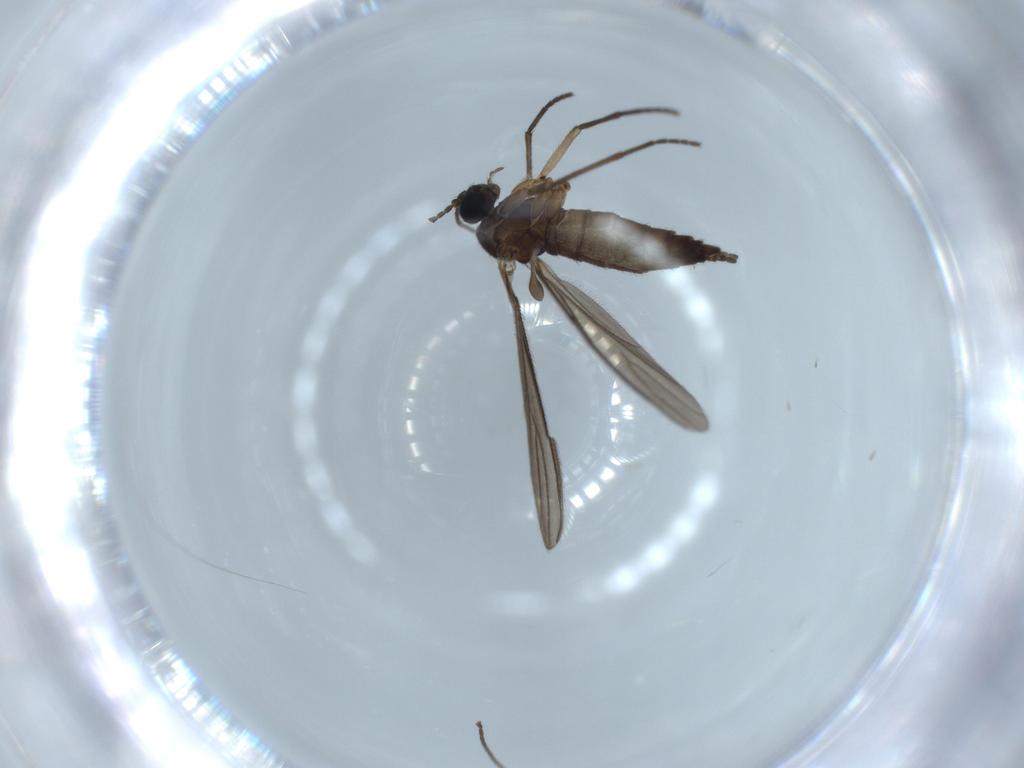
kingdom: Animalia
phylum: Arthropoda
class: Insecta
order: Diptera
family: Sciaridae
